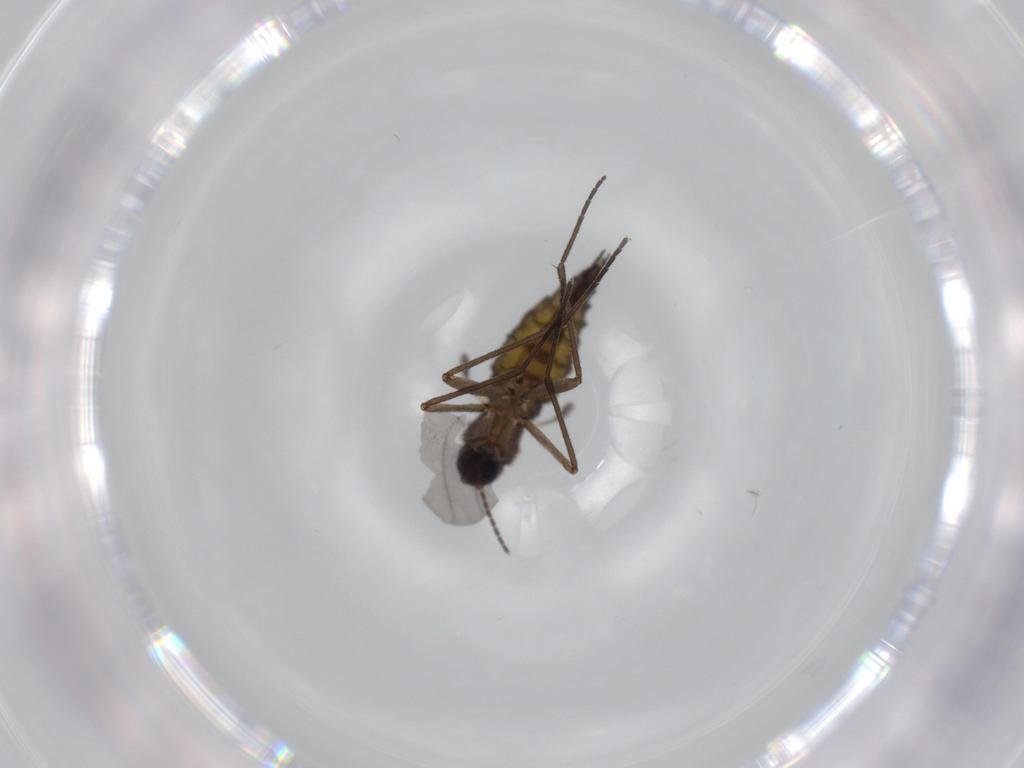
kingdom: Animalia
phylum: Arthropoda
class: Insecta
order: Diptera
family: Sciaridae
